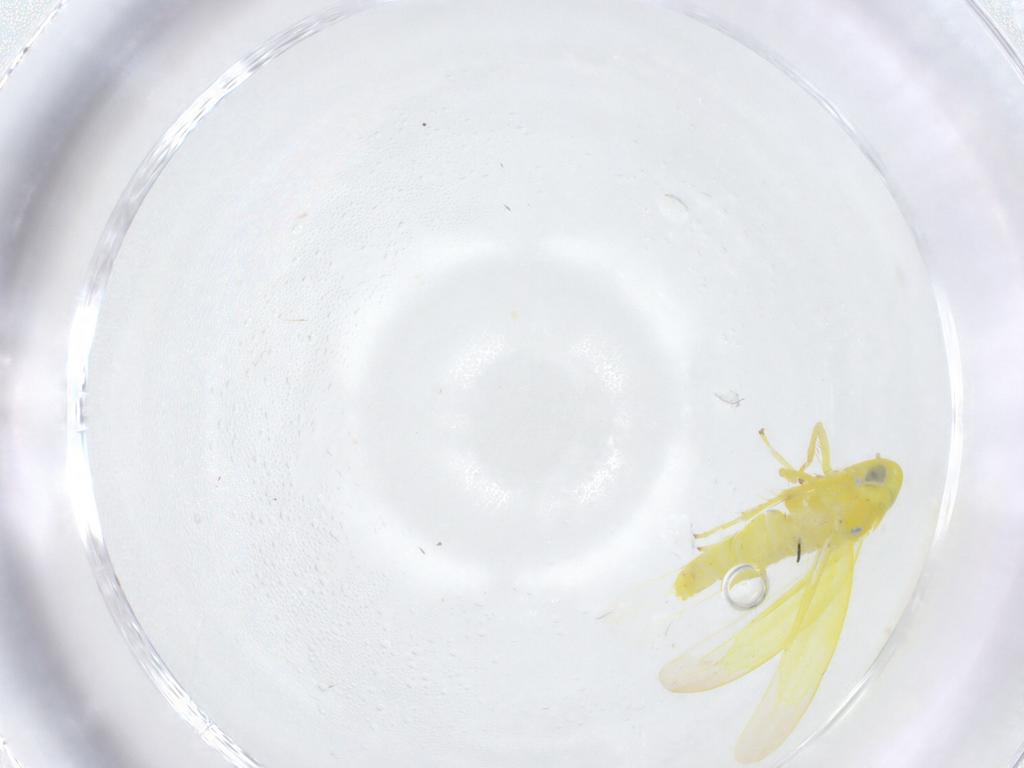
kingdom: Animalia
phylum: Arthropoda
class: Insecta
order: Hemiptera
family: Cicadellidae
